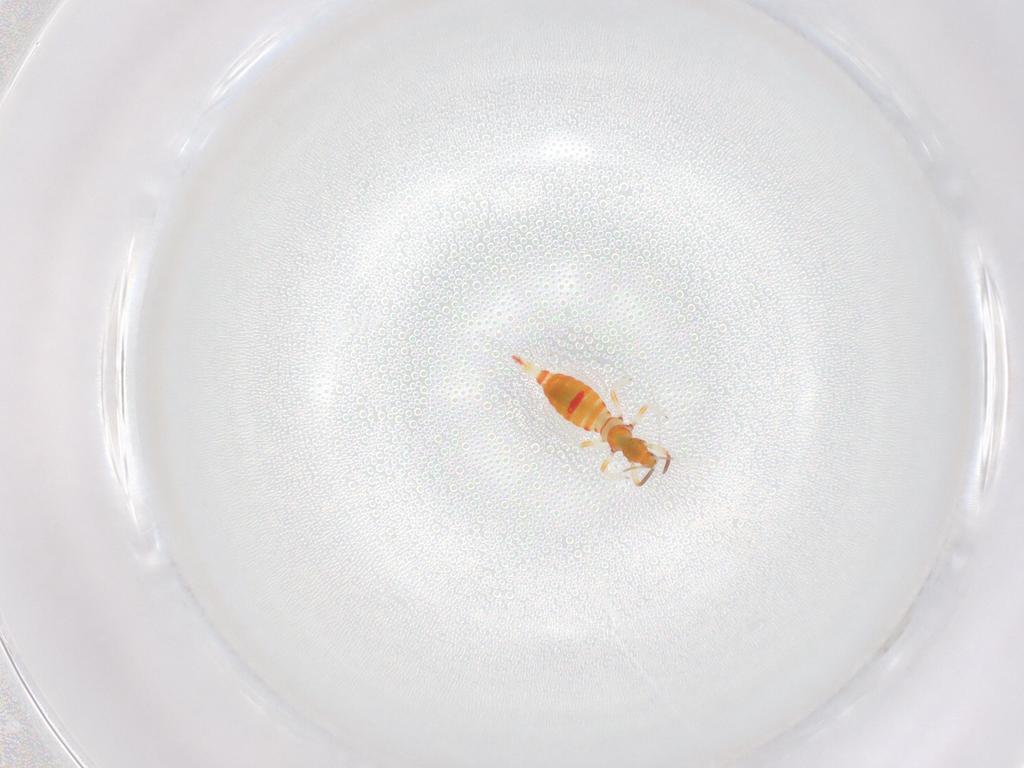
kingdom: Animalia
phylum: Arthropoda
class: Insecta
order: Thysanoptera
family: Aeolothripidae
